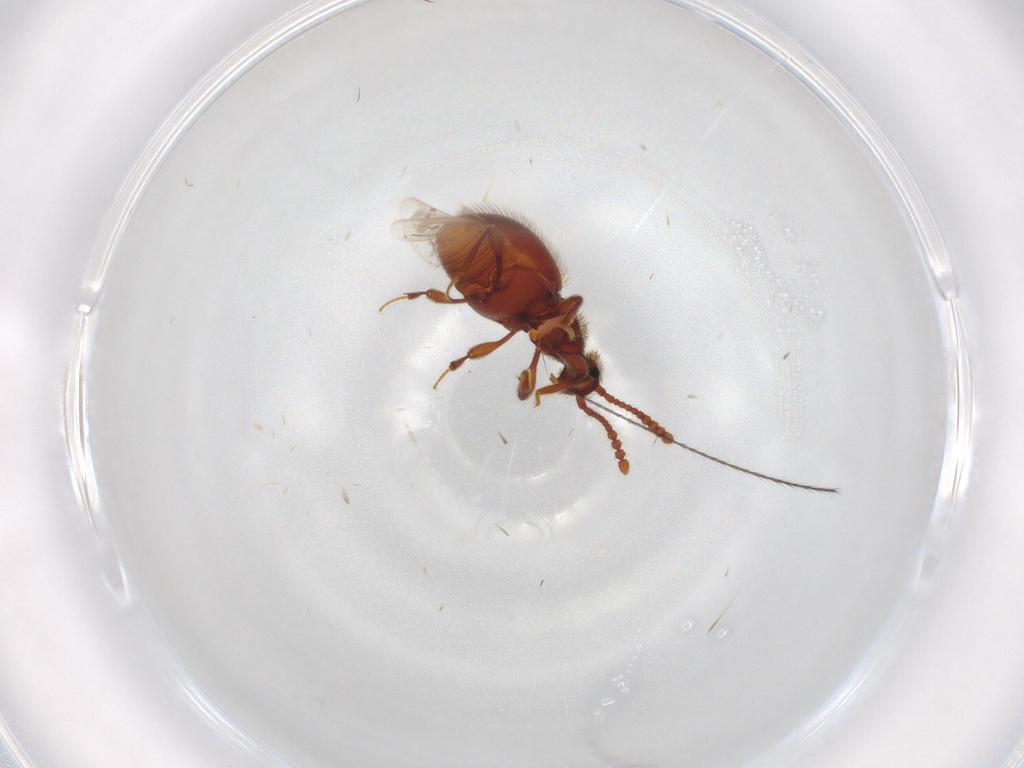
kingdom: Animalia
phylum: Arthropoda
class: Insecta
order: Coleoptera
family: Staphylinidae
